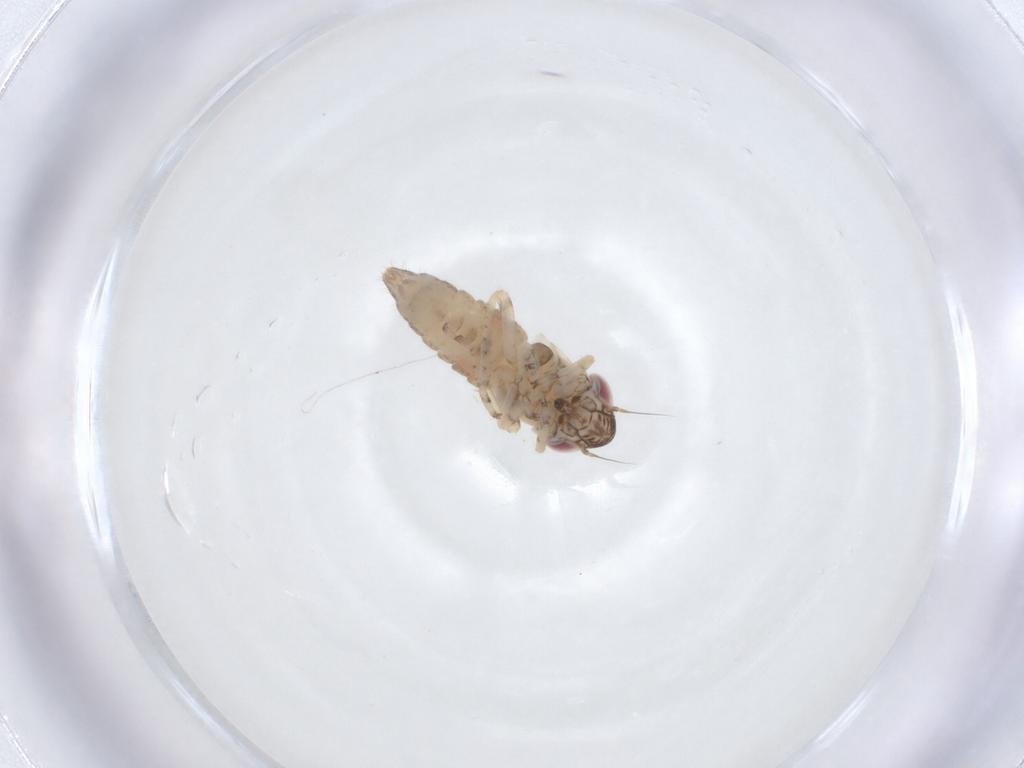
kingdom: Animalia
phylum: Arthropoda
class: Insecta
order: Hemiptera
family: Cicadellidae
